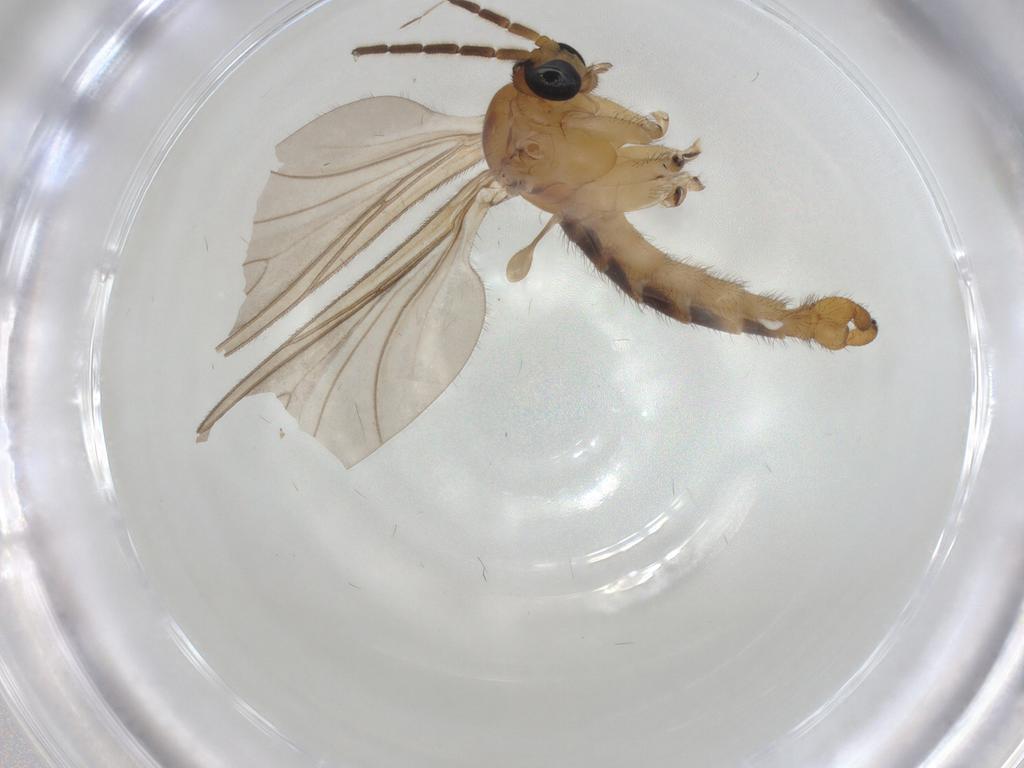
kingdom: Animalia
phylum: Arthropoda
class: Insecta
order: Diptera
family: Sciaridae
